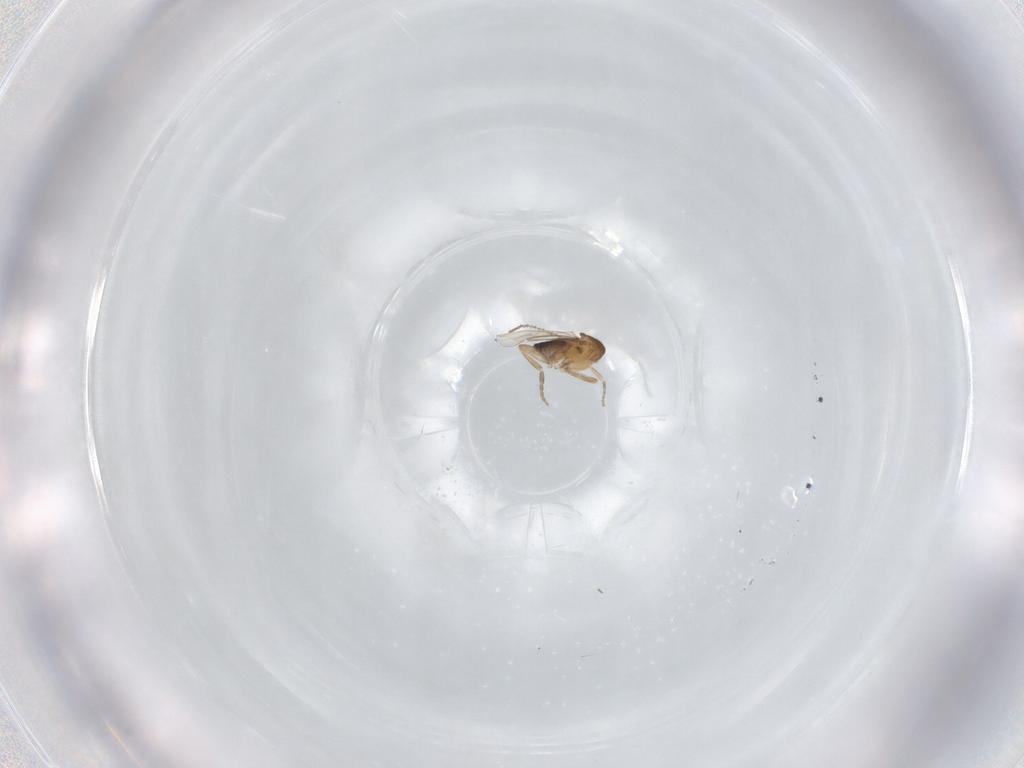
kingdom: Animalia
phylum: Arthropoda
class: Insecta
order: Diptera
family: Phoridae
